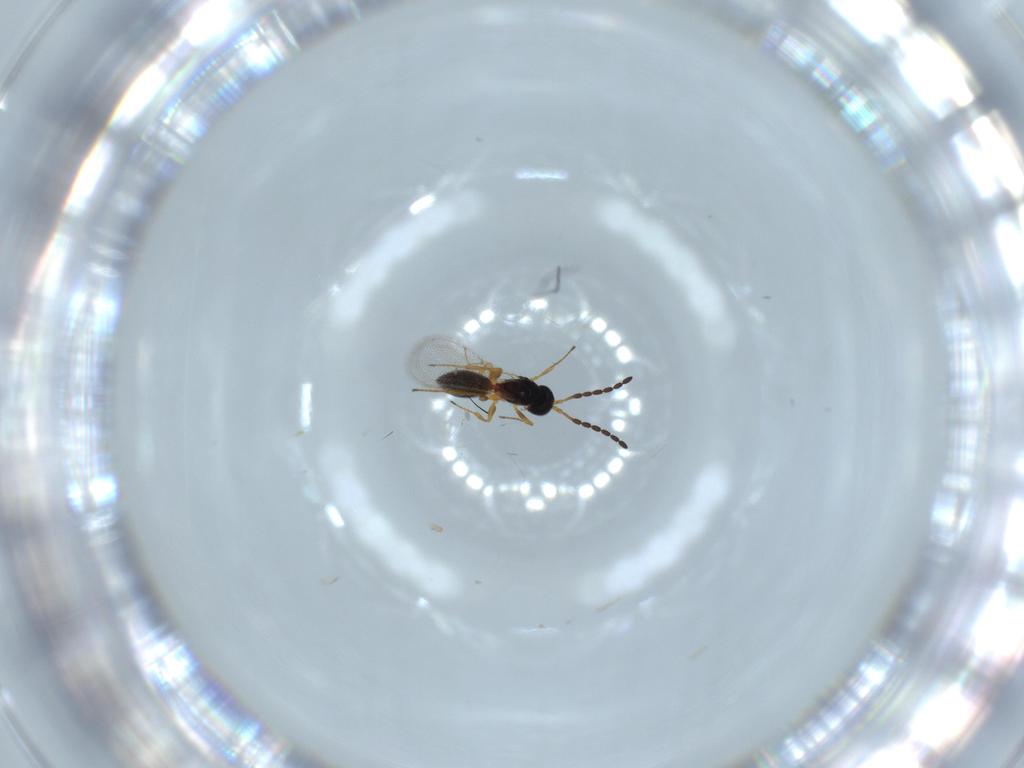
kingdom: Animalia
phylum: Arthropoda
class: Insecta
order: Hymenoptera
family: Figitidae
